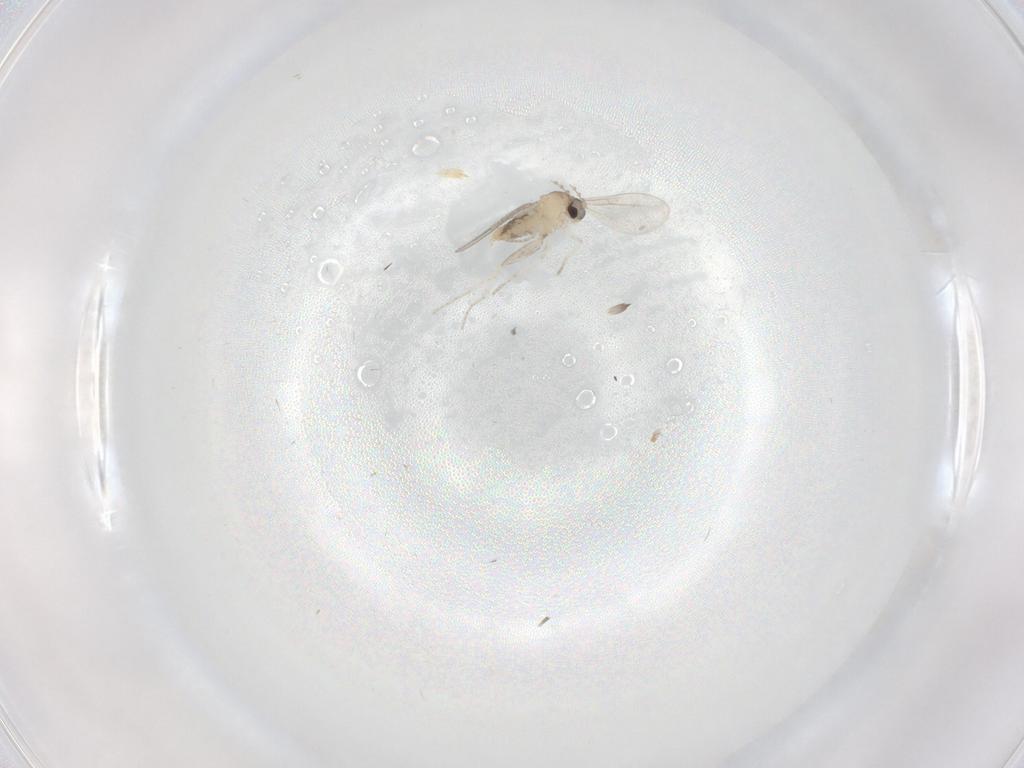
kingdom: Animalia
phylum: Arthropoda
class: Insecta
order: Diptera
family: Cecidomyiidae
